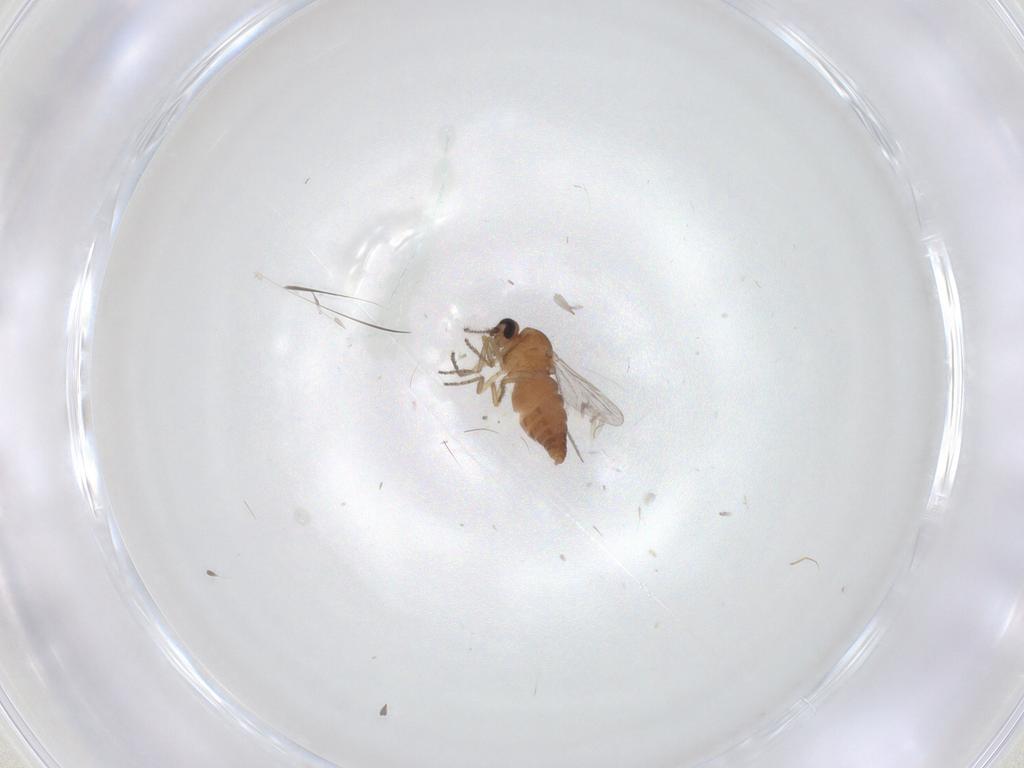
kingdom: Animalia
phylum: Arthropoda
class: Insecta
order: Diptera
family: Ceratopogonidae
